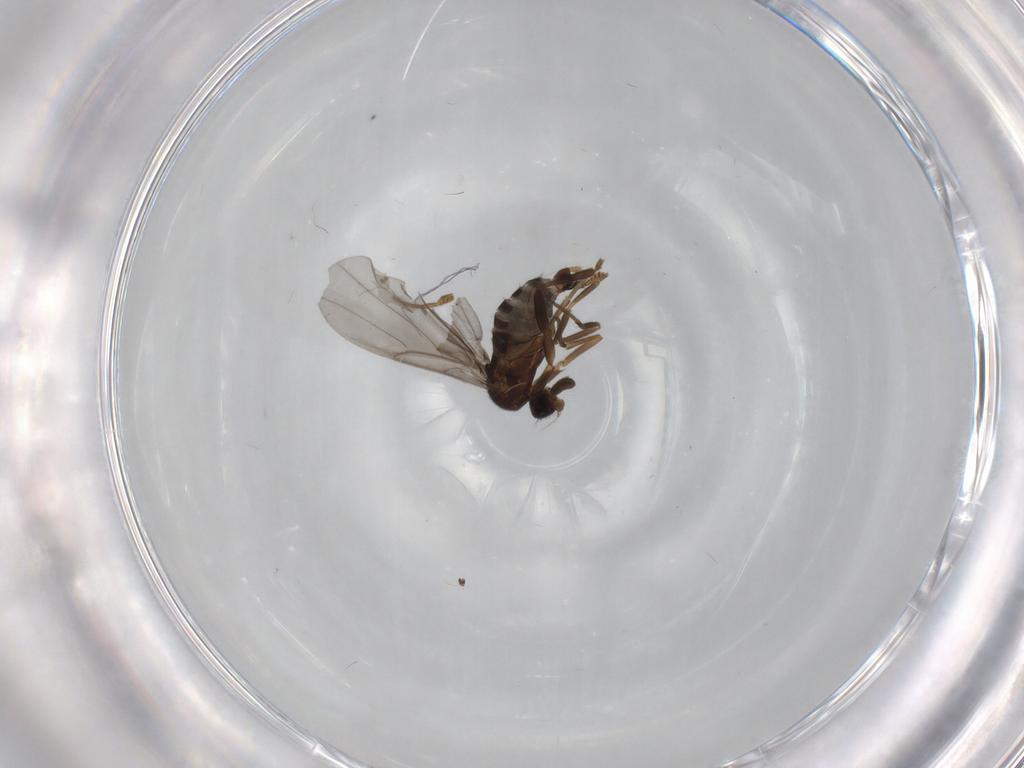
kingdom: Animalia
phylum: Arthropoda
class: Insecta
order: Diptera
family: Phoridae
